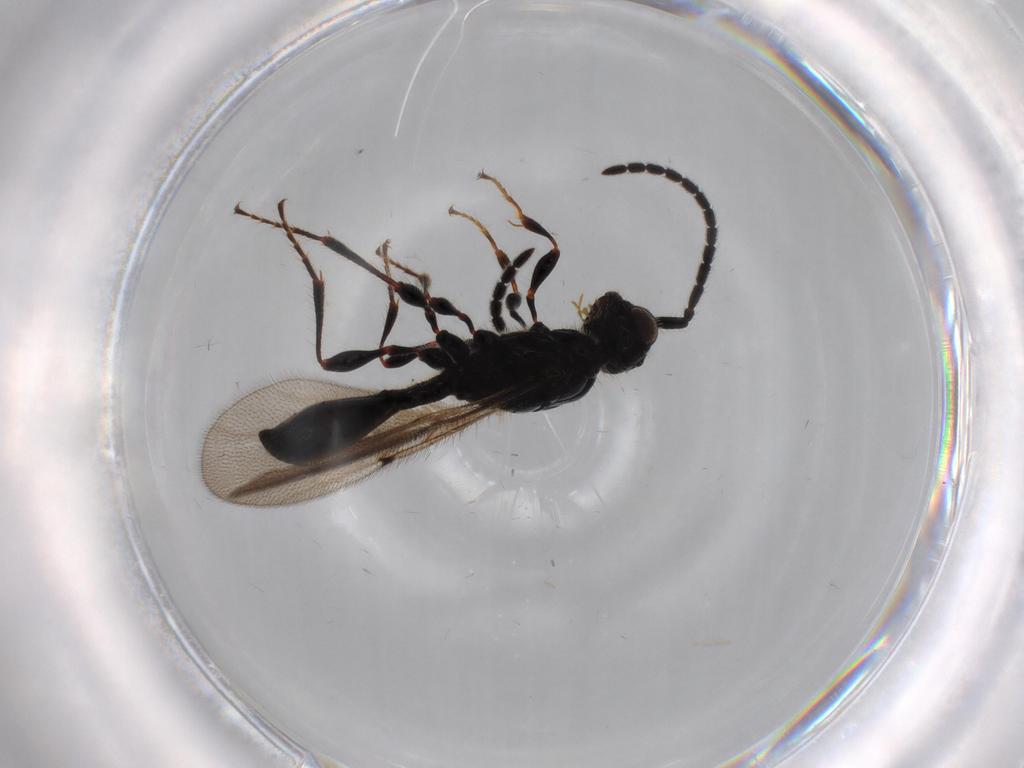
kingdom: Animalia
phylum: Arthropoda
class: Insecta
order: Hymenoptera
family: Diapriidae
